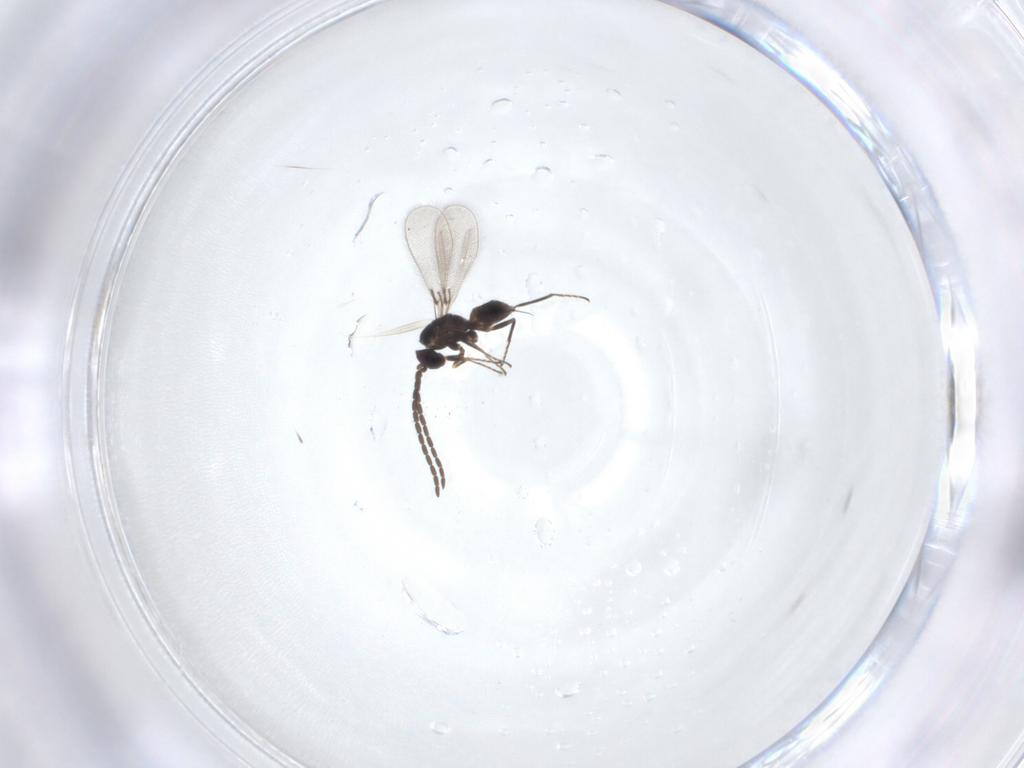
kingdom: Animalia
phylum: Arthropoda
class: Insecta
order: Hymenoptera
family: Mymaridae
